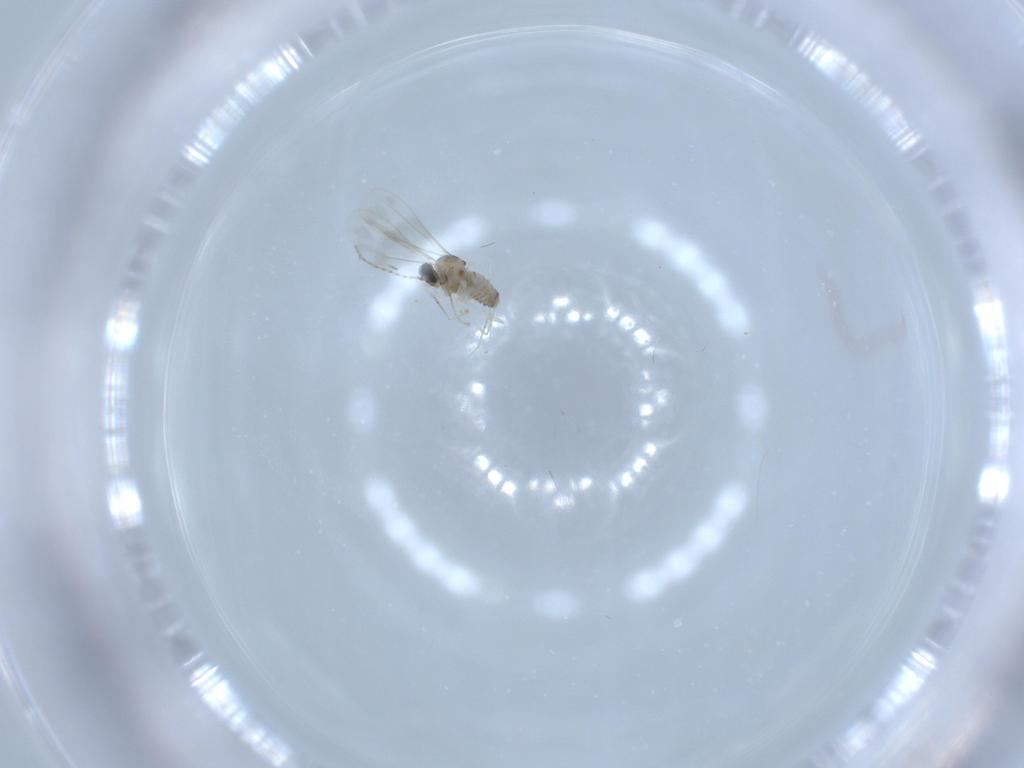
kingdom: Animalia
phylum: Arthropoda
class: Insecta
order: Diptera
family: Cecidomyiidae
